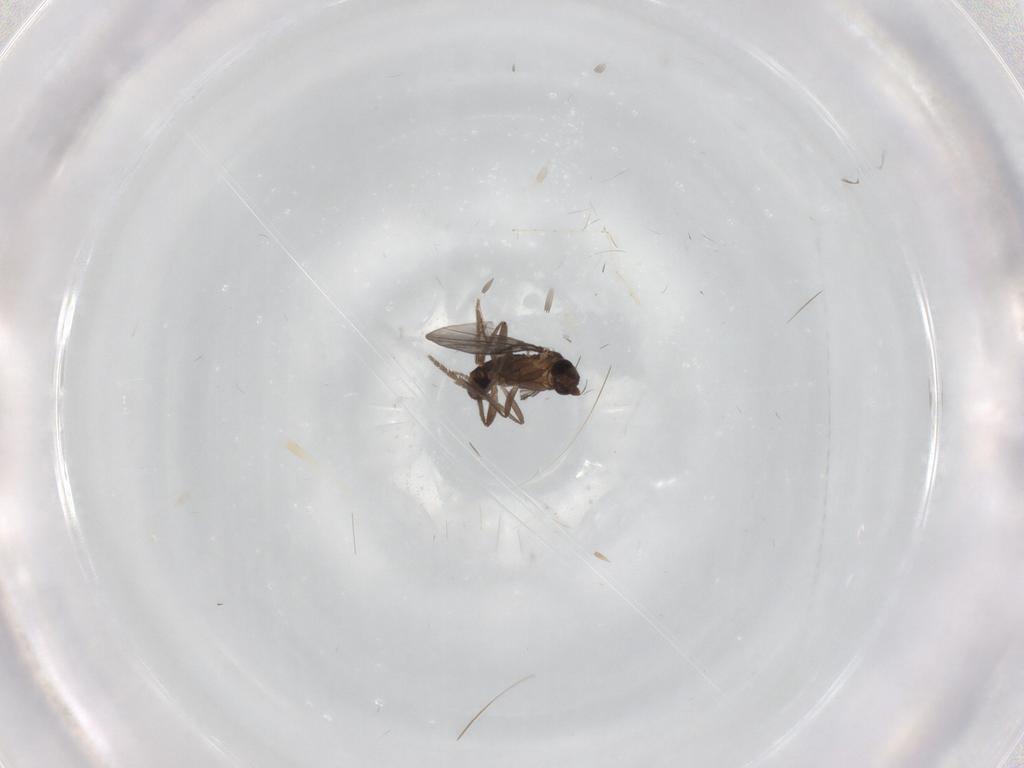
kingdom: Animalia
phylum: Arthropoda
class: Insecta
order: Diptera
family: Phoridae
